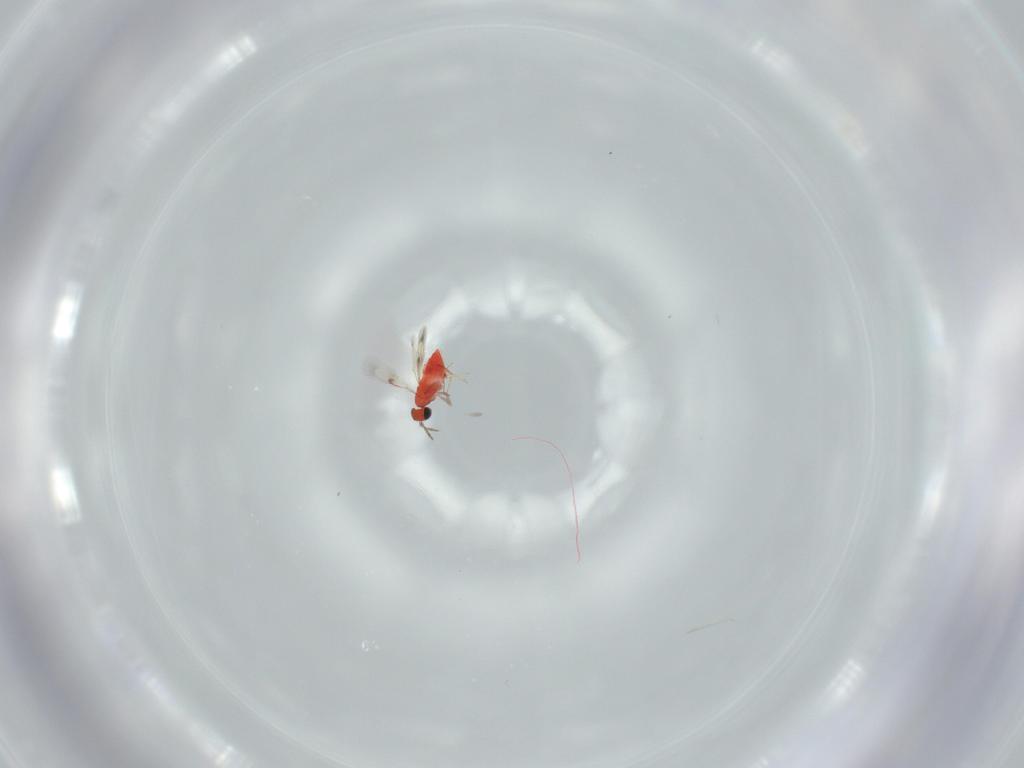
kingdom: Animalia
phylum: Arthropoda
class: Insecta
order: Hymenoptera
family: Trichogrammatidae
